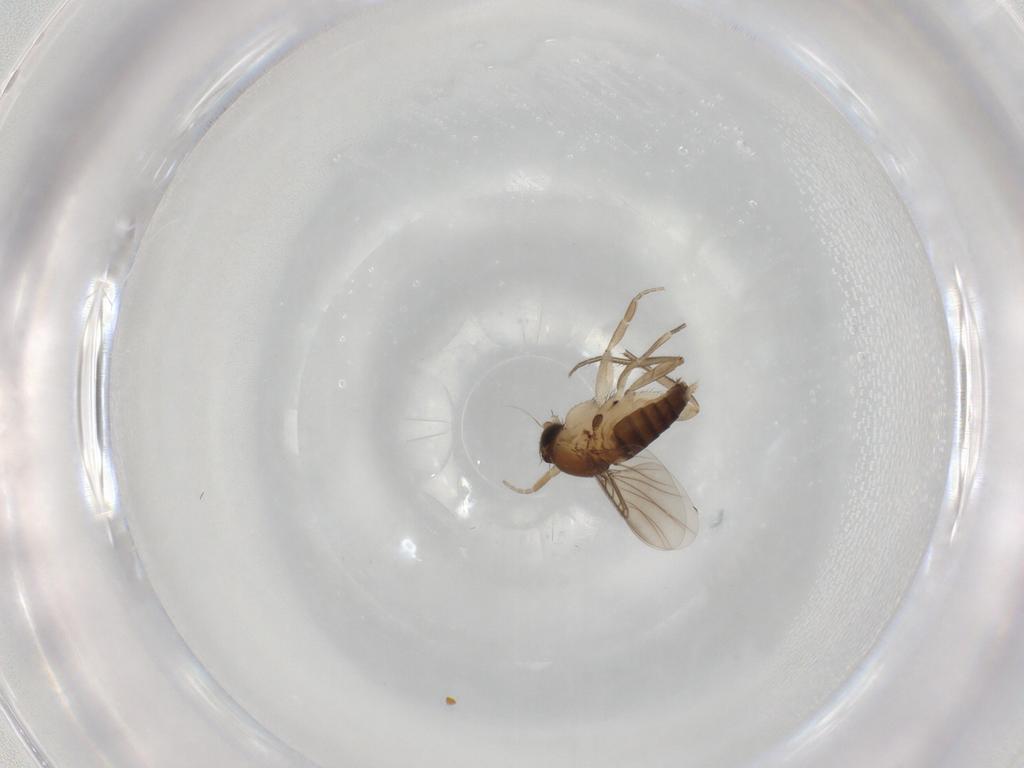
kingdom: Animalia
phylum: Arthropoda
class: Insecta
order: Diptera
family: Phoridae
